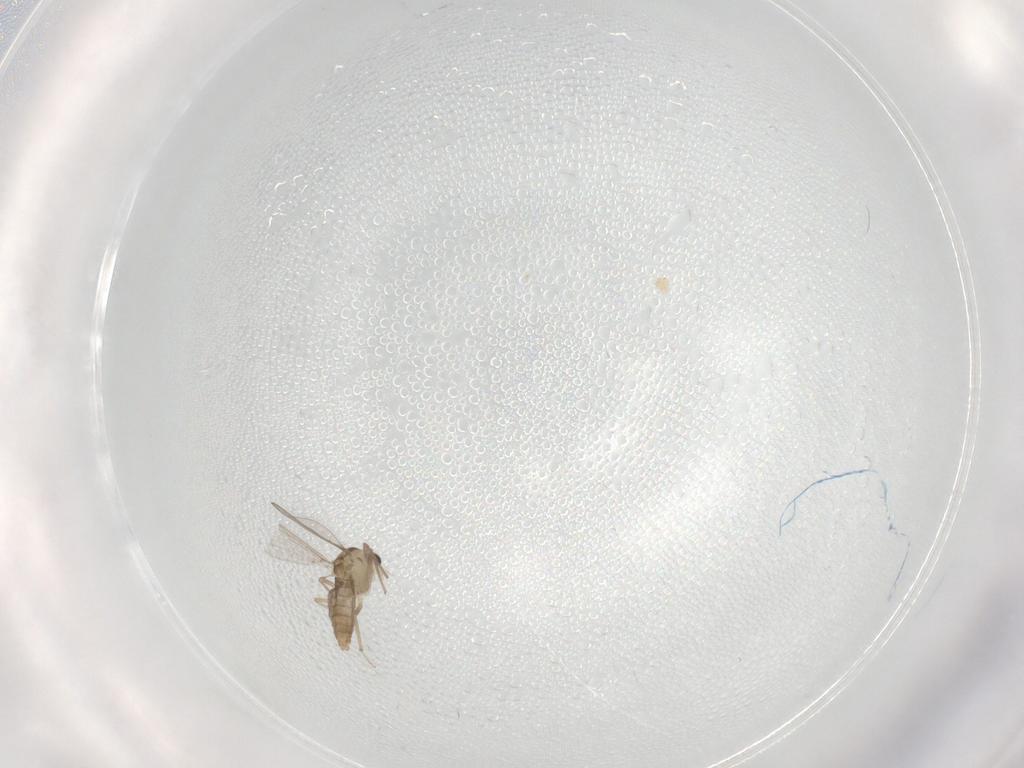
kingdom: Animalia
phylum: Arthropoda
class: Insecta
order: Diptera
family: Chironomidae
